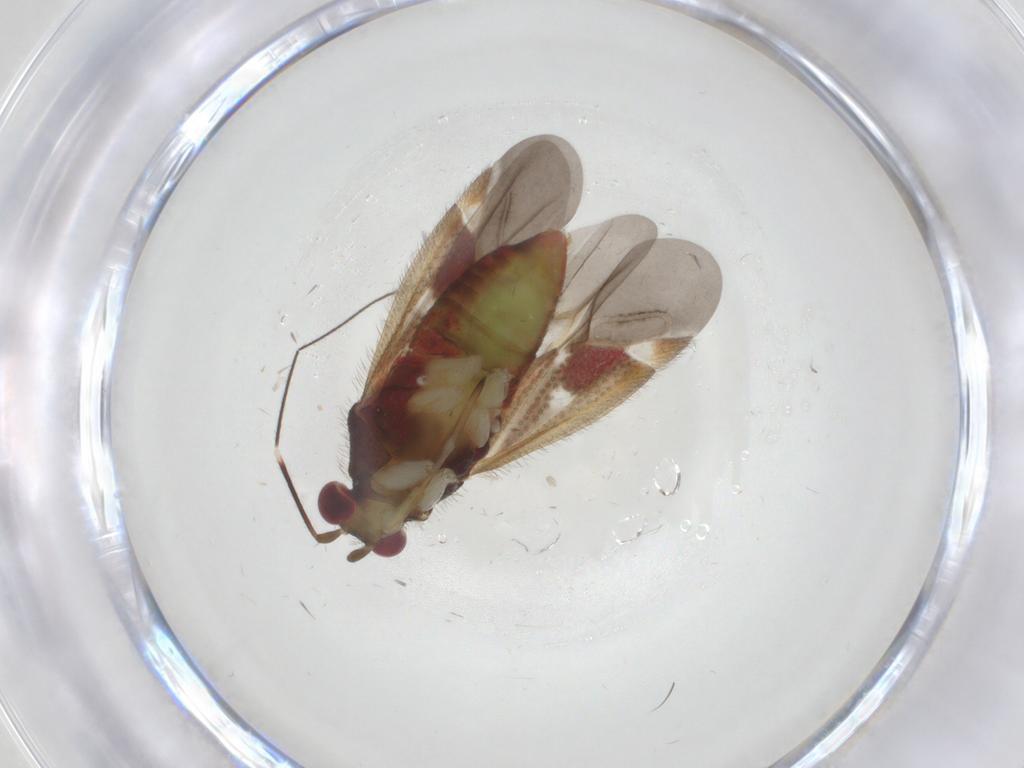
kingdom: Animalia
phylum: Arthropoda
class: Insecta
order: Hemiptera
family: Miridae
